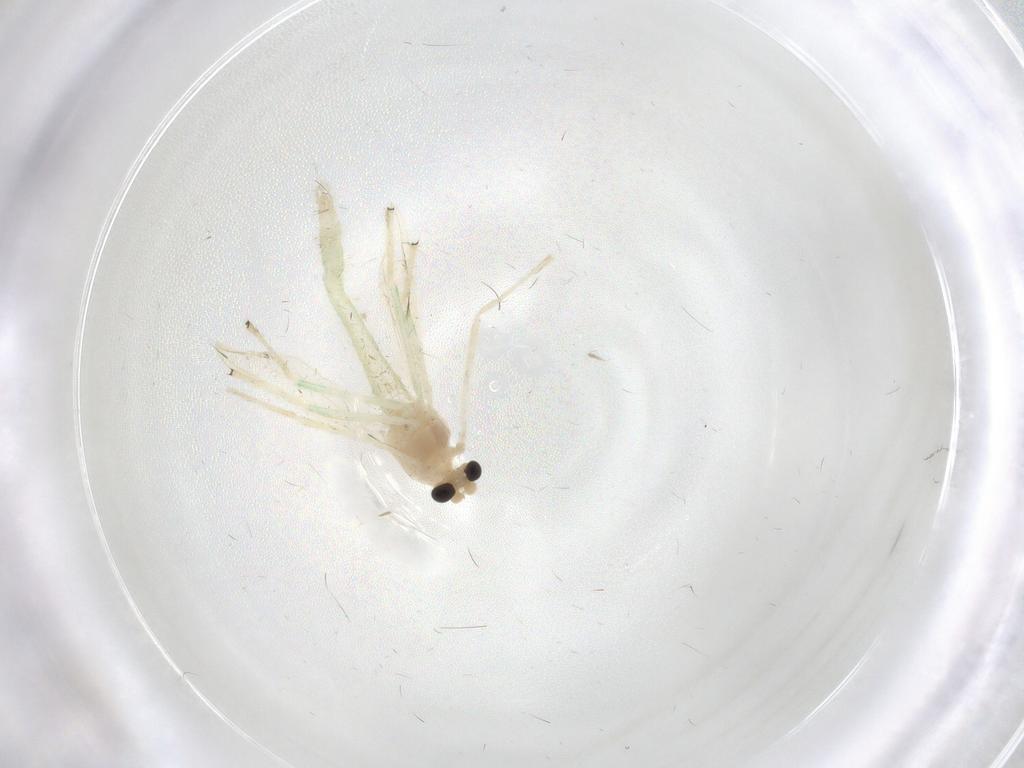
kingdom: Animalia
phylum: Arthropoda
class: Insecta
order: Diptera
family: Chironomidae
